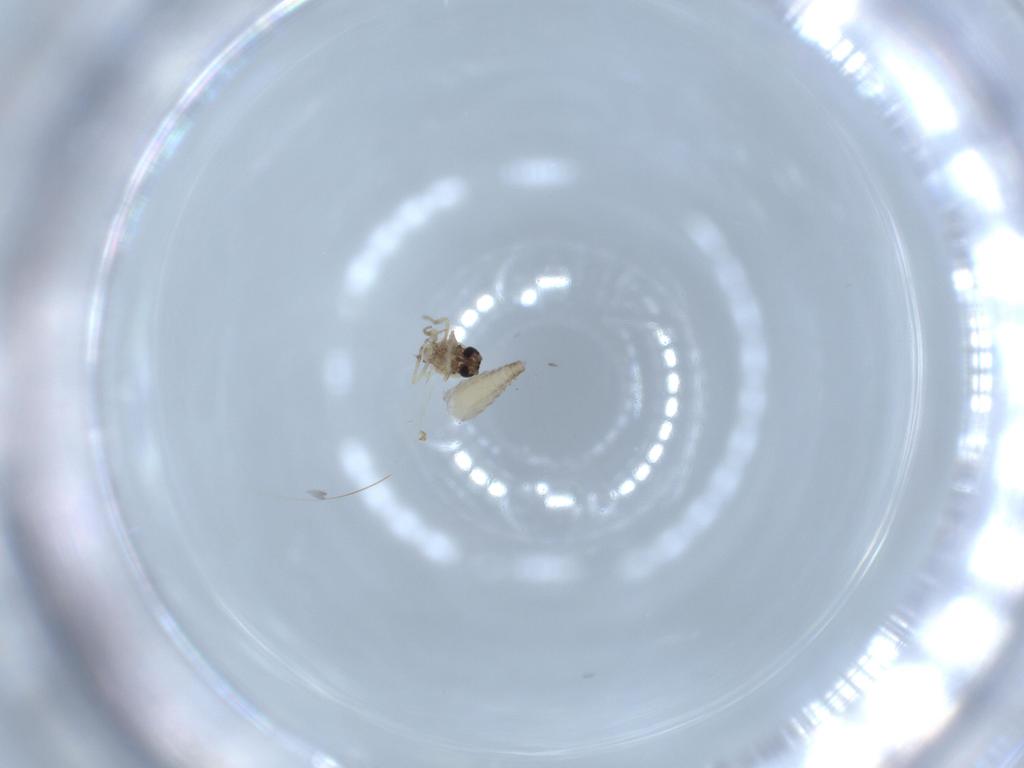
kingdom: Animalia
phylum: Arthropoda
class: Insecta
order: Diptera
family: Ceratopogonidae
